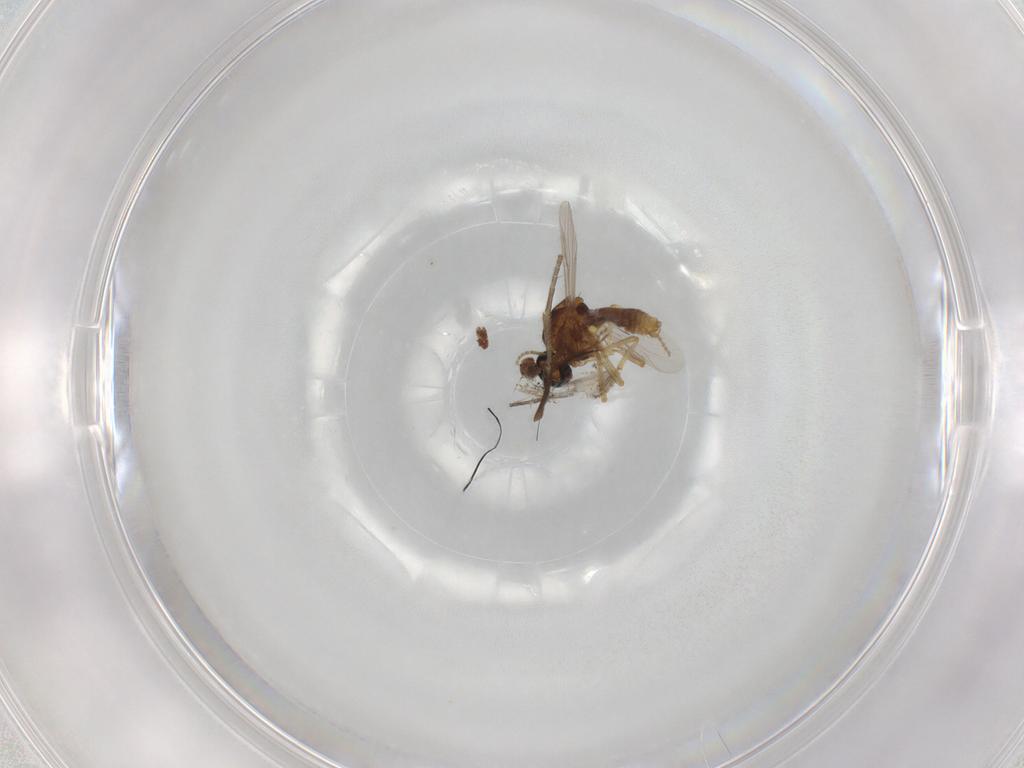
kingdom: Animalia
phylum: Arthropoda
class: Insecta
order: Diptera
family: Ceratopogonidae
